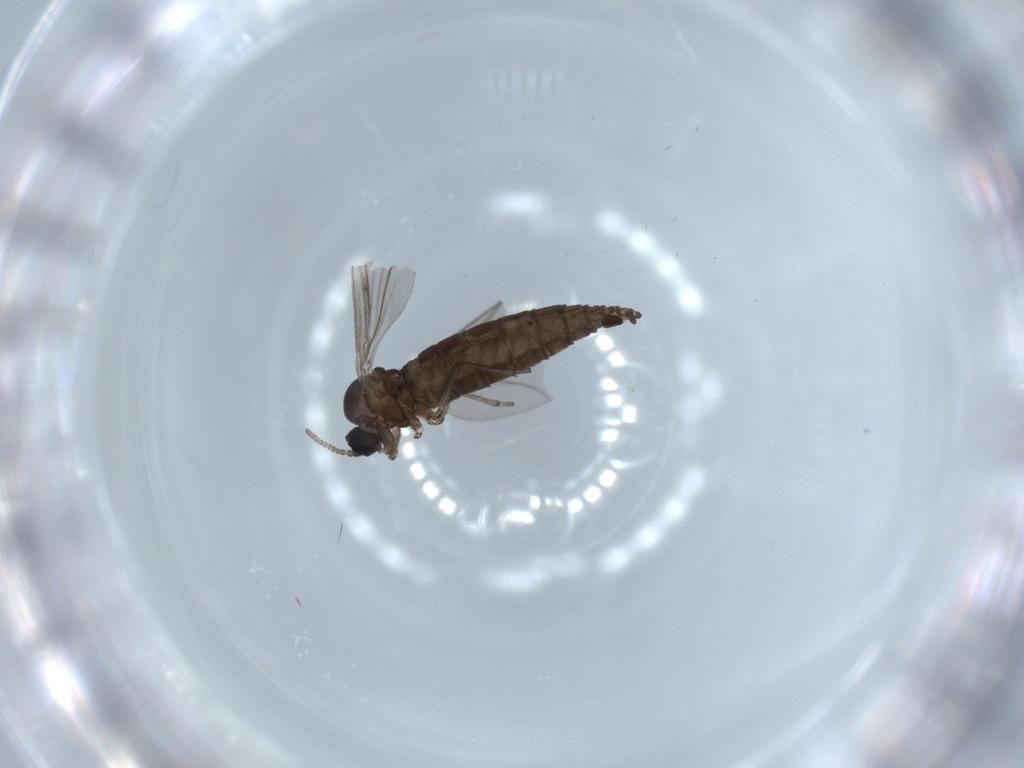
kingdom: Animalia
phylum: Arthropoda
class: Insecta
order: Diptera
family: Sciaridae
